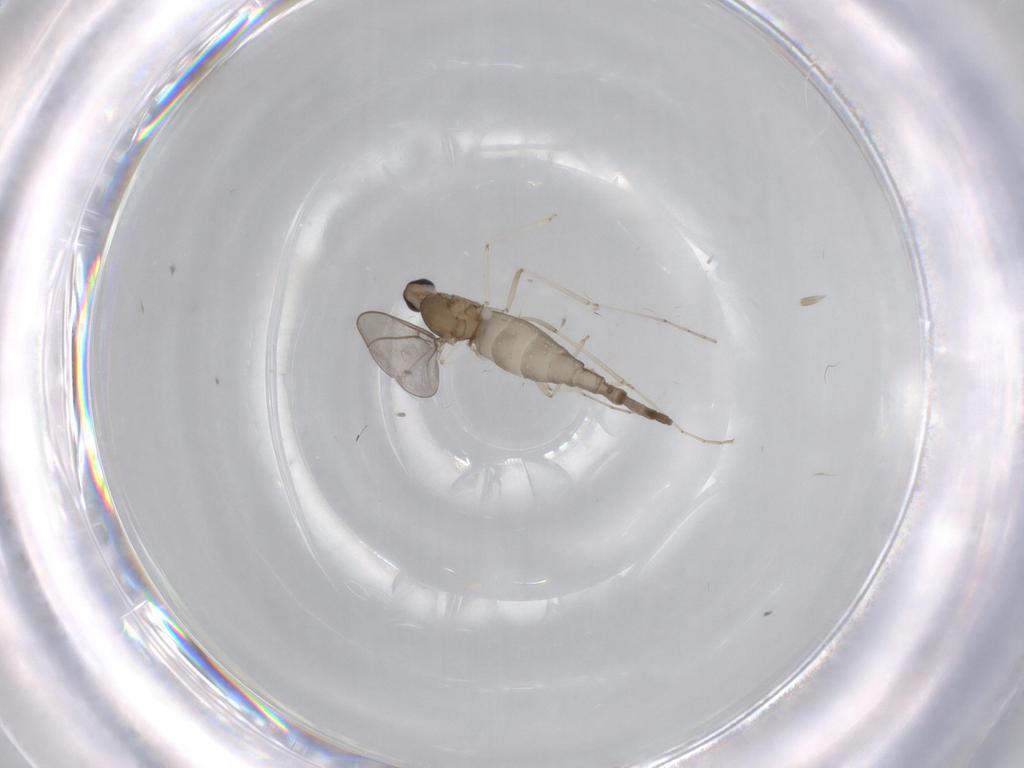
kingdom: Animalia
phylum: Arthropoda
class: Insecta
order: Diptera
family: Cecidomyiidae
